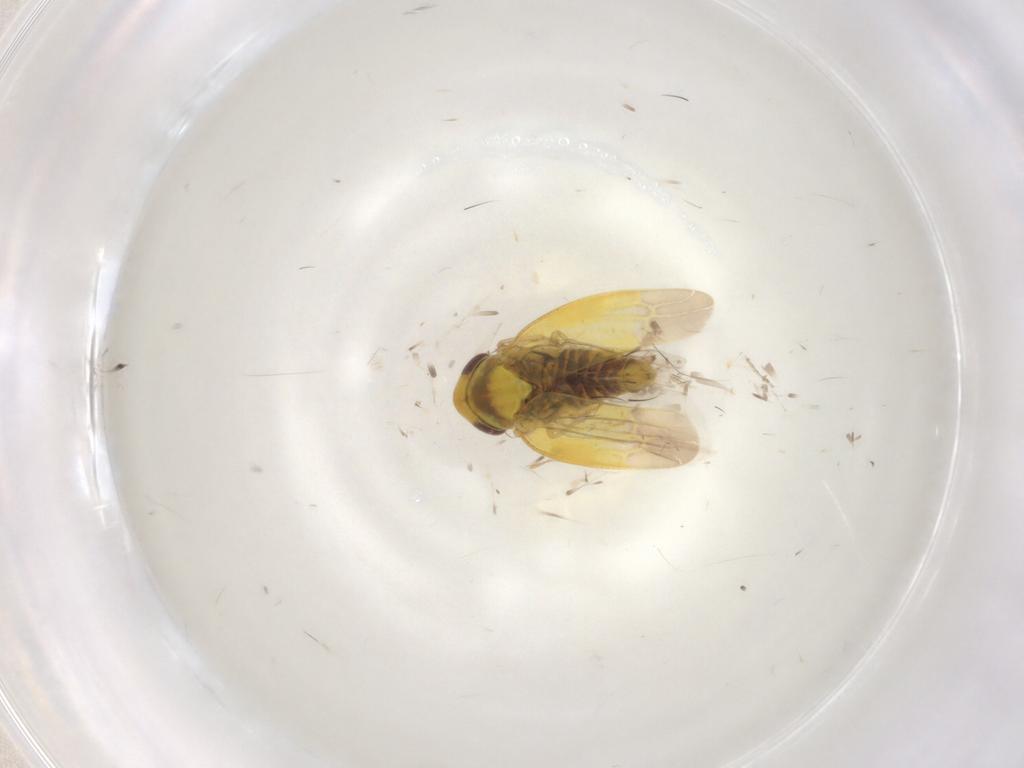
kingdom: Animalia
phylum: Arthropoda
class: Insecta
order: Hemiptera
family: Cicadellidae
